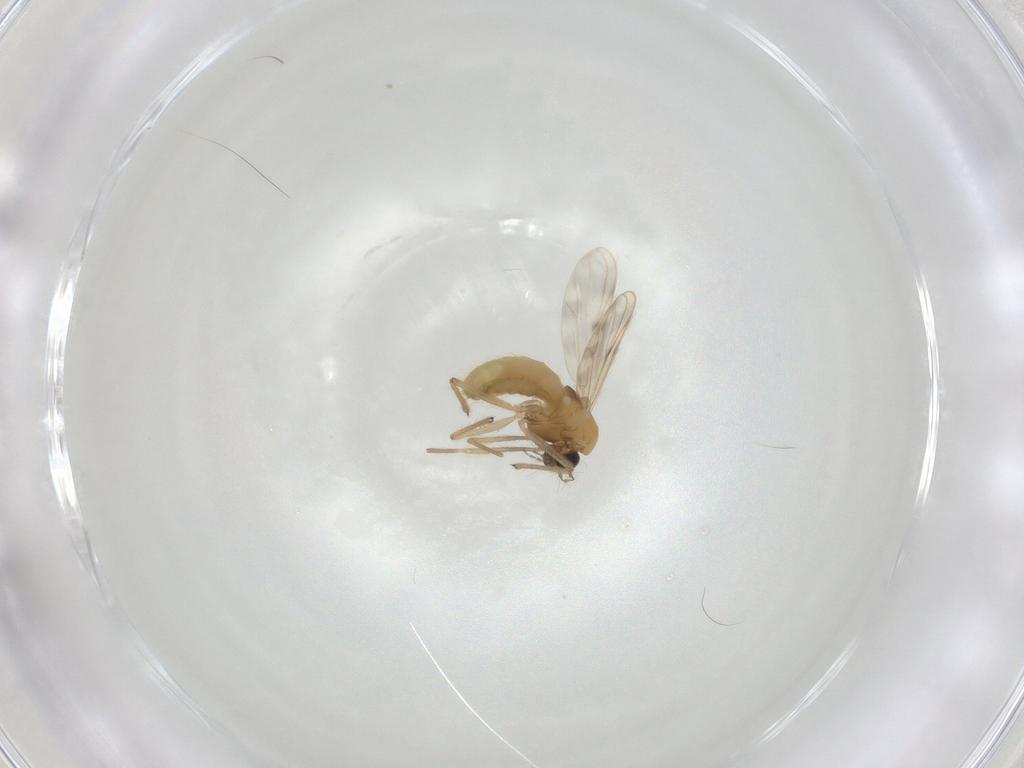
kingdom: Animalia
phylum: Arthropoda
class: Insecta
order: Diptera
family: Chironomidae
